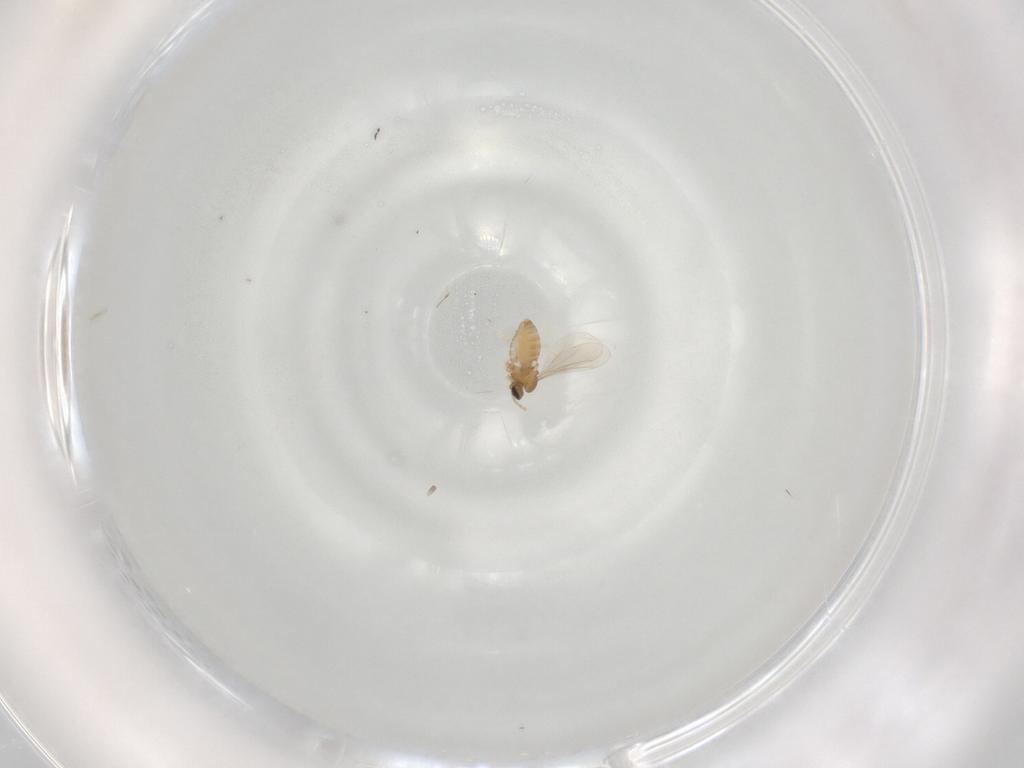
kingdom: Animalia
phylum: Arthropoda
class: Insecta
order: Diptera
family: Cecidomyiidae
